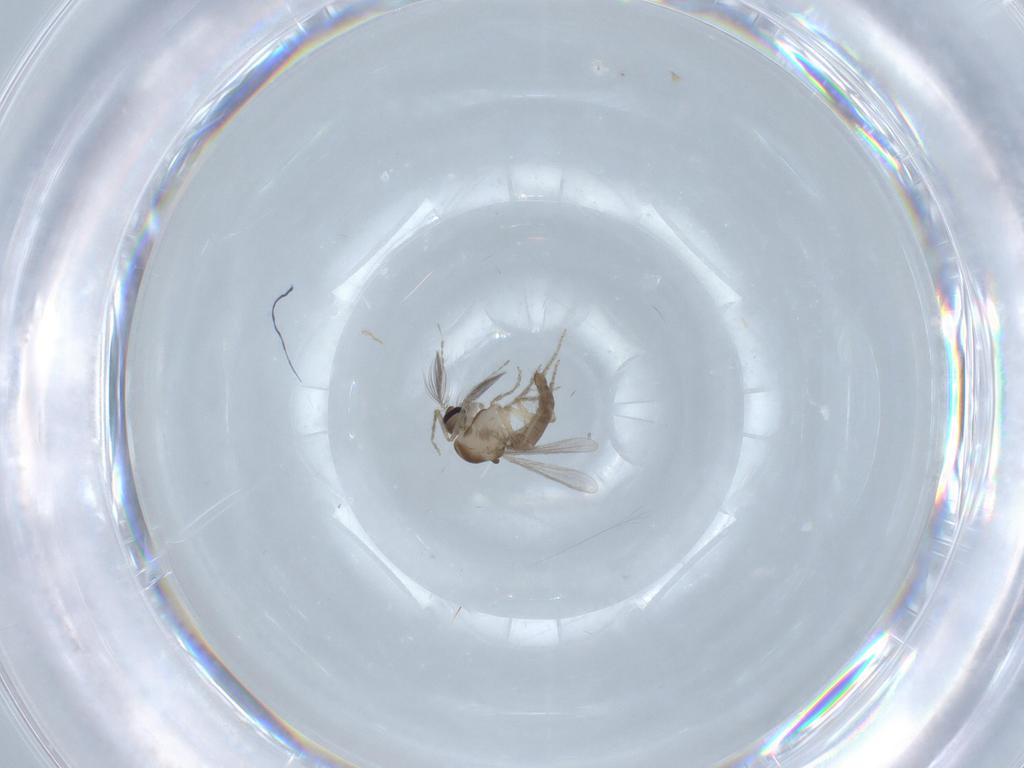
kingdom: Animalia
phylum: Arthropoda
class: Insecta
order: Diptera
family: Ceratopogonidae
